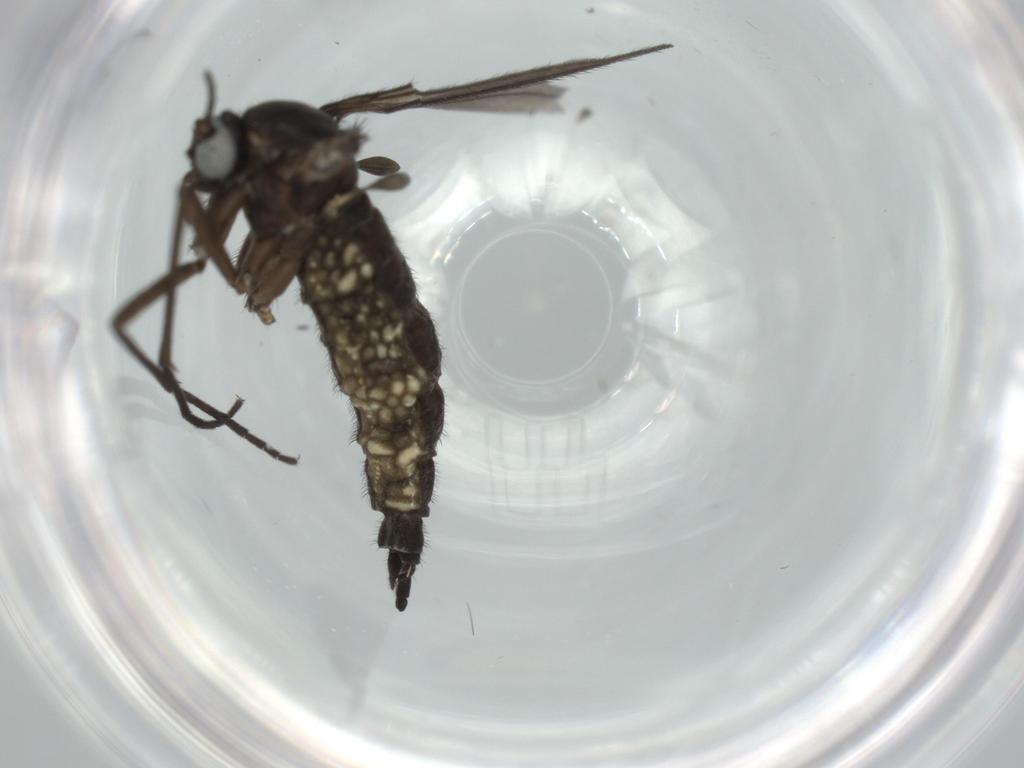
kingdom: Animalia
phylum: Arthropoda
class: Insecta
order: Diptera
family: Sciaridae
